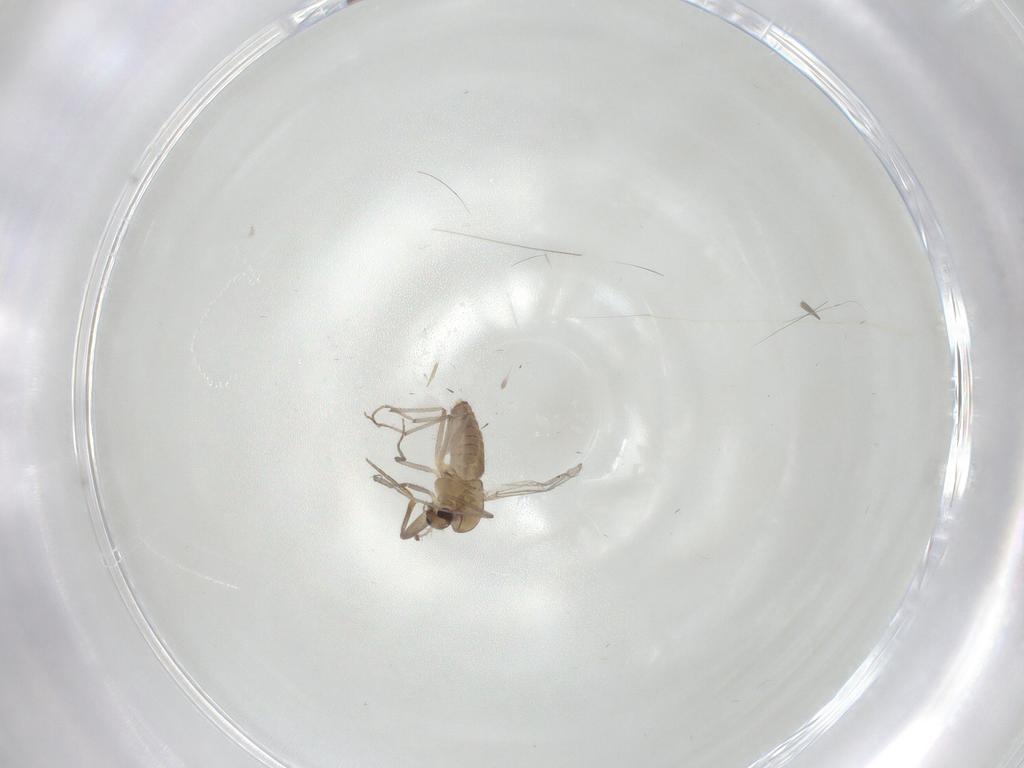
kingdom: Animalia
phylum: Arthropoda
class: Insecta
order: Diptera
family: Chironomidae
